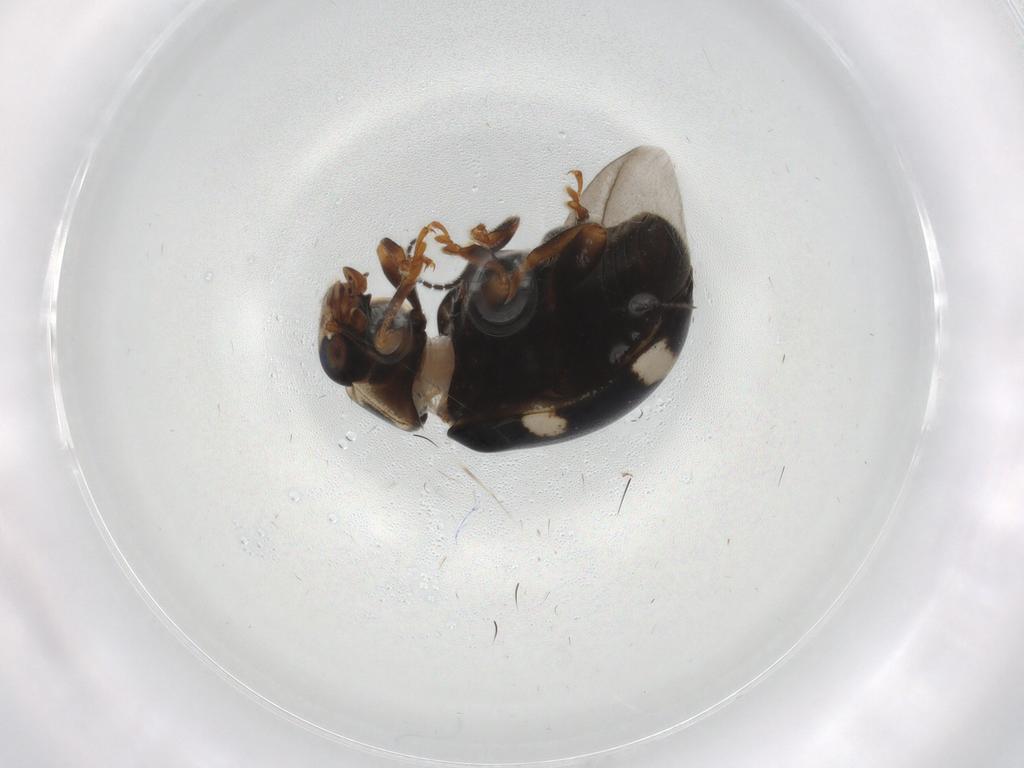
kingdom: Animalia
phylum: Arthropoda
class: Insecta
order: Coleoptera
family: Coccinellidae
